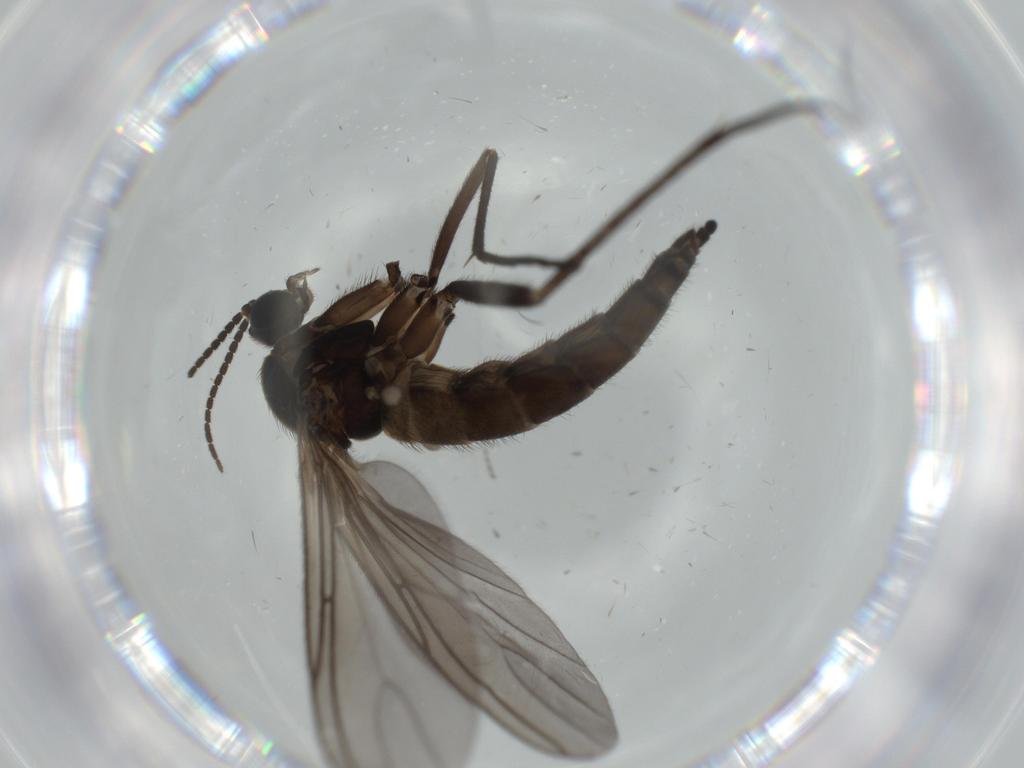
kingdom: Animalia
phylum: Arthropoda
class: Insecta
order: Diptera
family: Sciaridae
